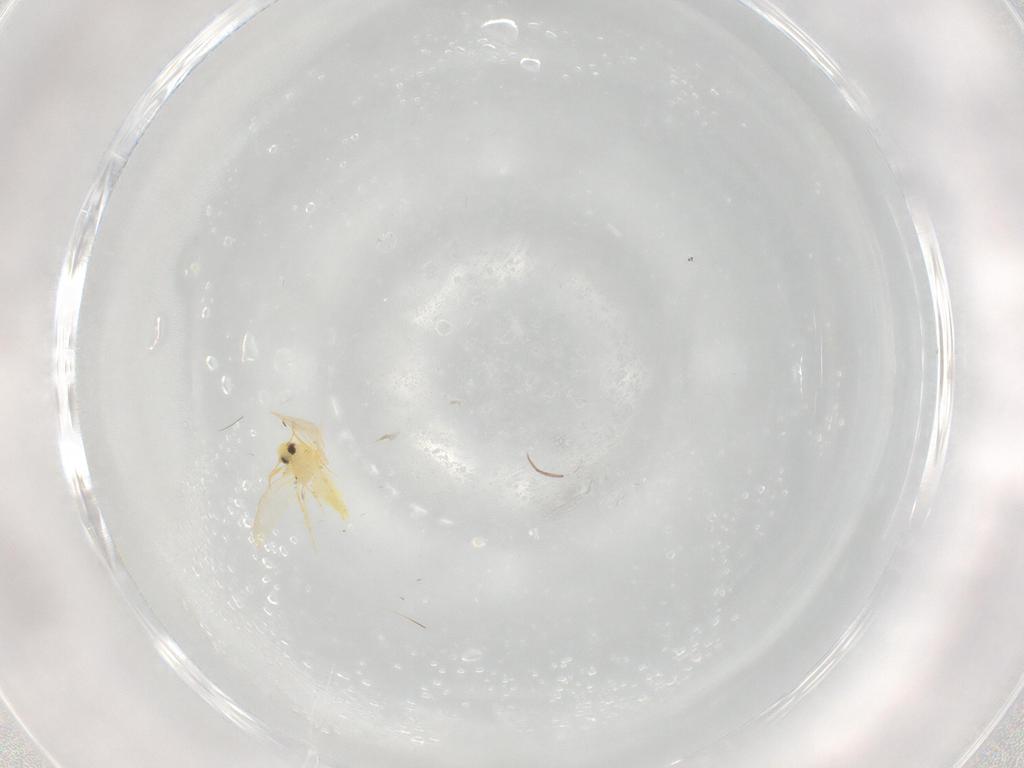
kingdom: Animalia
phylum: Arthropoda
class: Insecta
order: Hemiptera
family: Aleyrodidae
